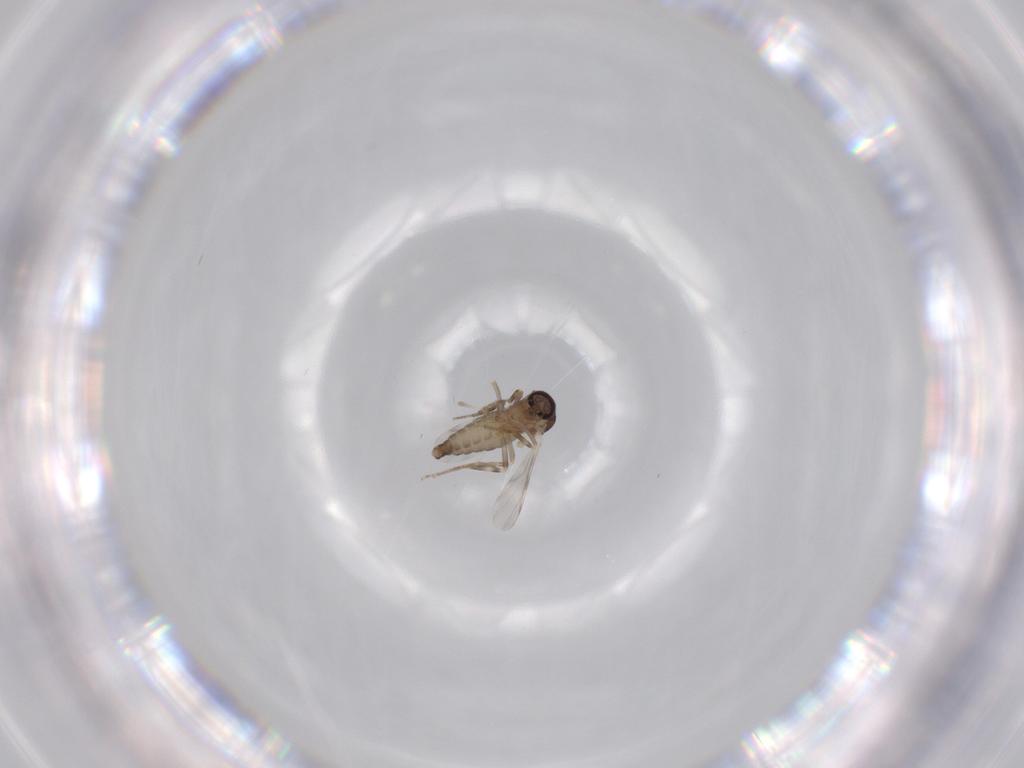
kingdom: Animalia
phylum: Arthropoda
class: Insecta
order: Diptera
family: Ceratopogonidae
